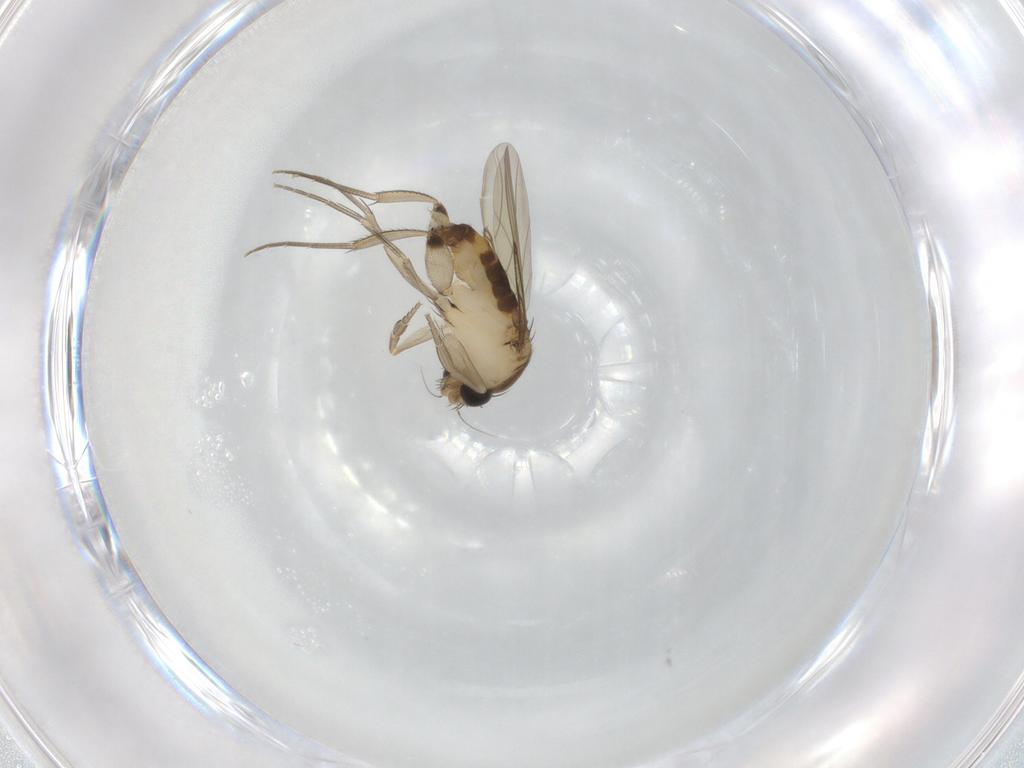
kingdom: Animalia
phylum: Arthropoda
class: Insecta
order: Diptera
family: Phoridae
